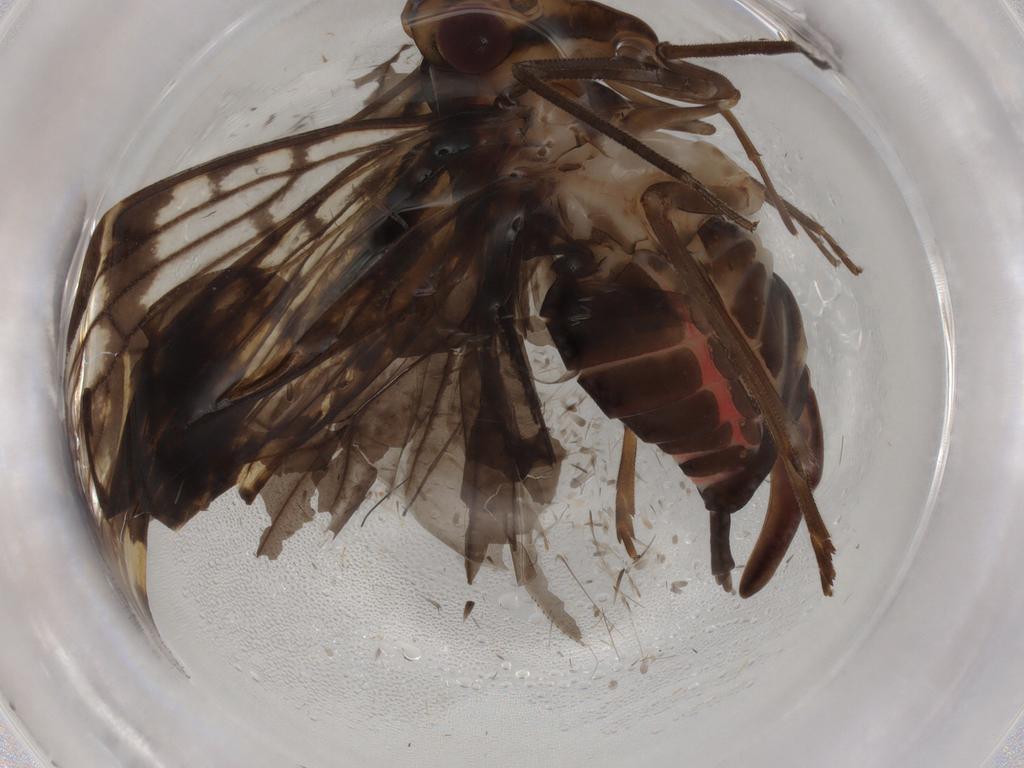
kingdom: Animalia
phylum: Arthropoda
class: Insecta
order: Hemiptera
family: Cixiidae
